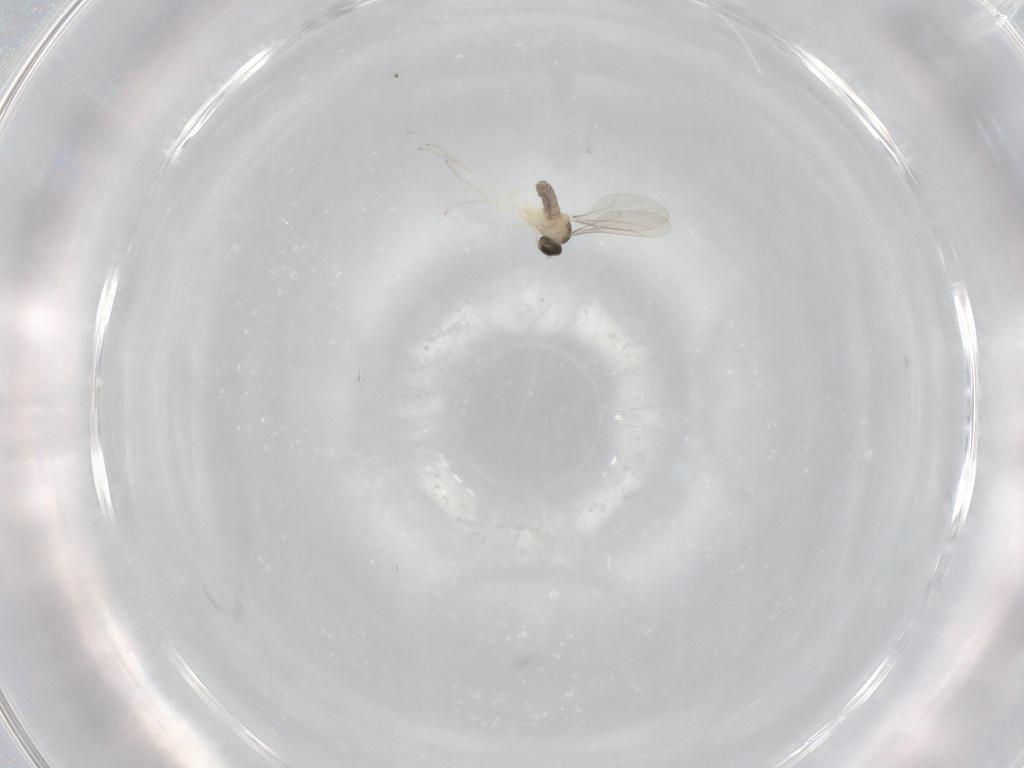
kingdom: Animalia
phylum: Arthropoda
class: Insecta
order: Diptera
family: Cecidomyiidae
